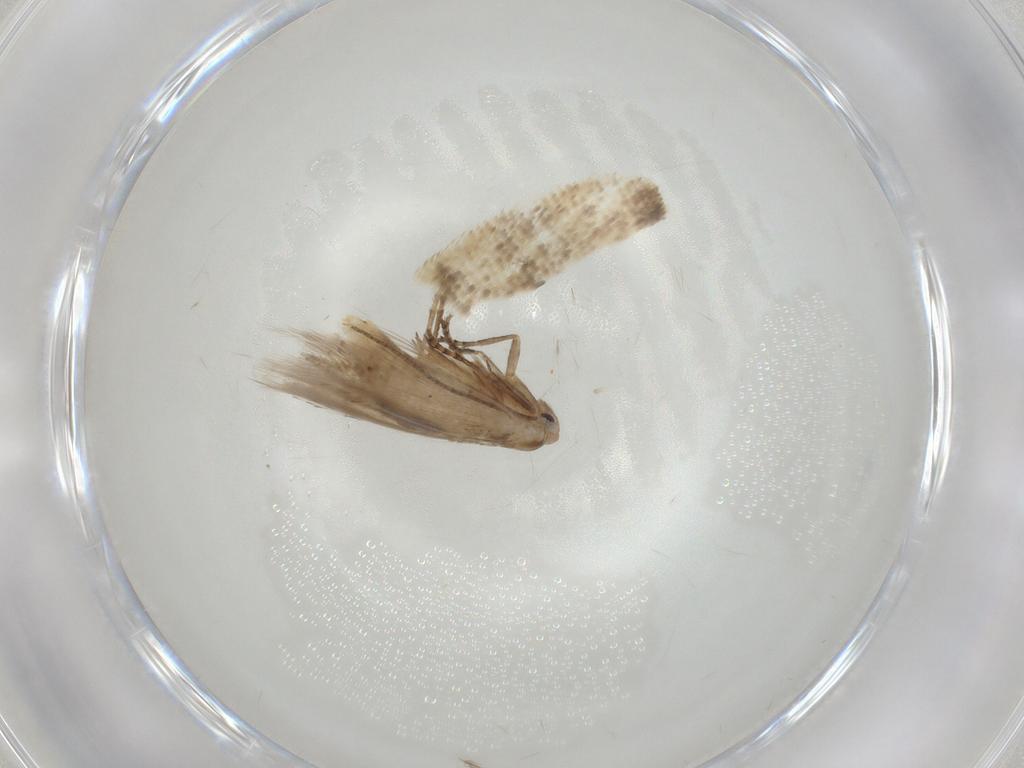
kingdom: Animalia
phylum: Arthropoda
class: Insecta
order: Lepidoptera
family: Bucculatricidae
